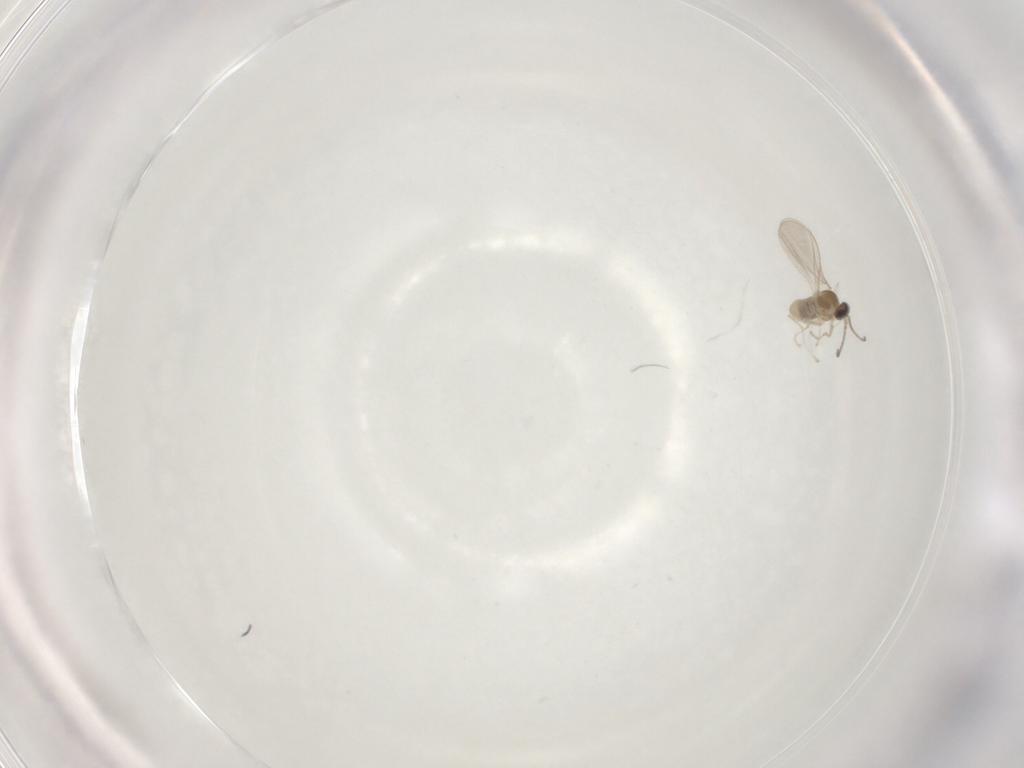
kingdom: Animalia
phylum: Arthropoda
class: Insecta
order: Diptera
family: Cecidomyiidae
